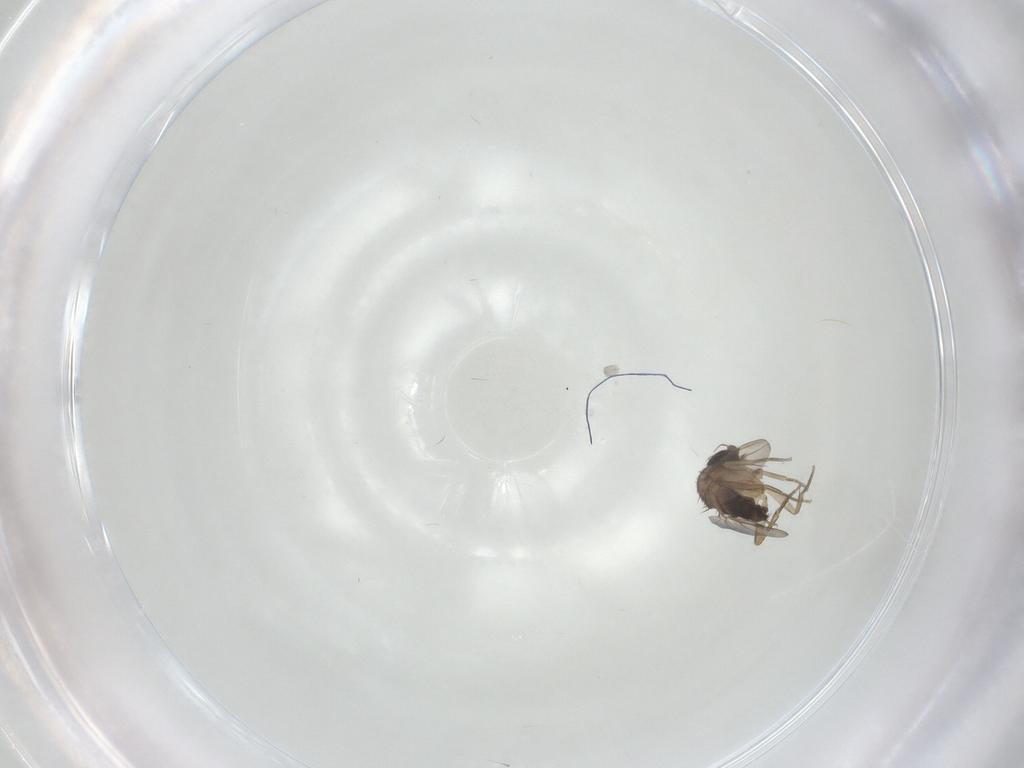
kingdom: Animalia
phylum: Arthropoda
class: Insecta
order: Diptera
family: Phoridae
